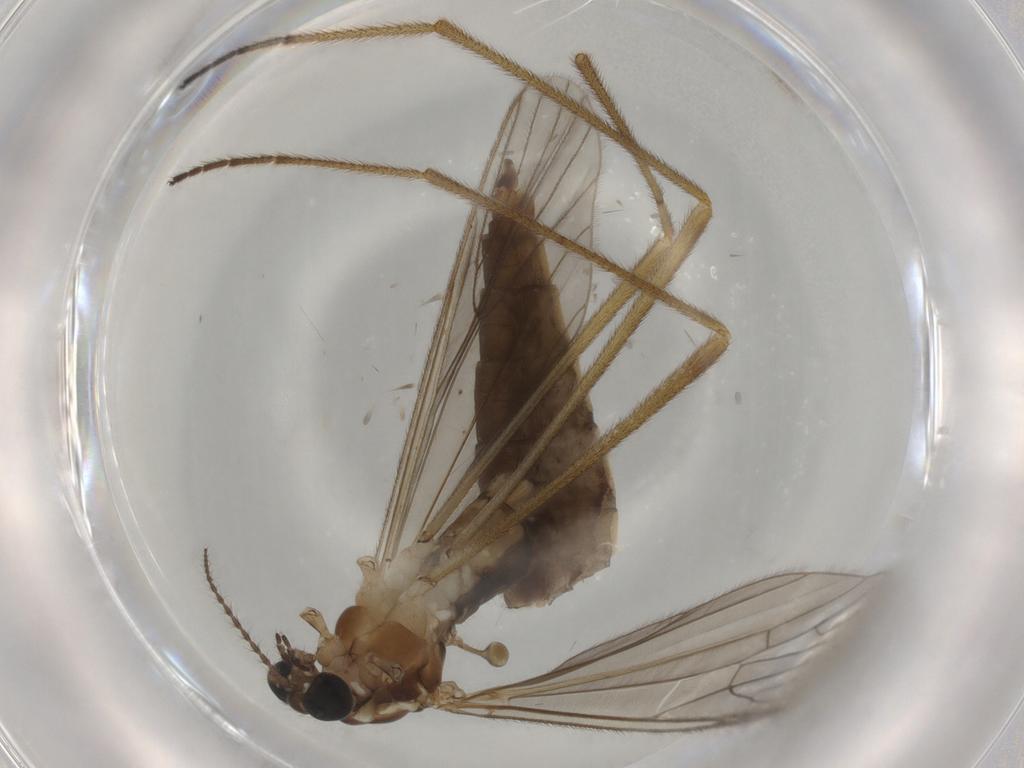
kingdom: Animalia
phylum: Arthropoda
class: Insecta
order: Diptera
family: Limoniidae
